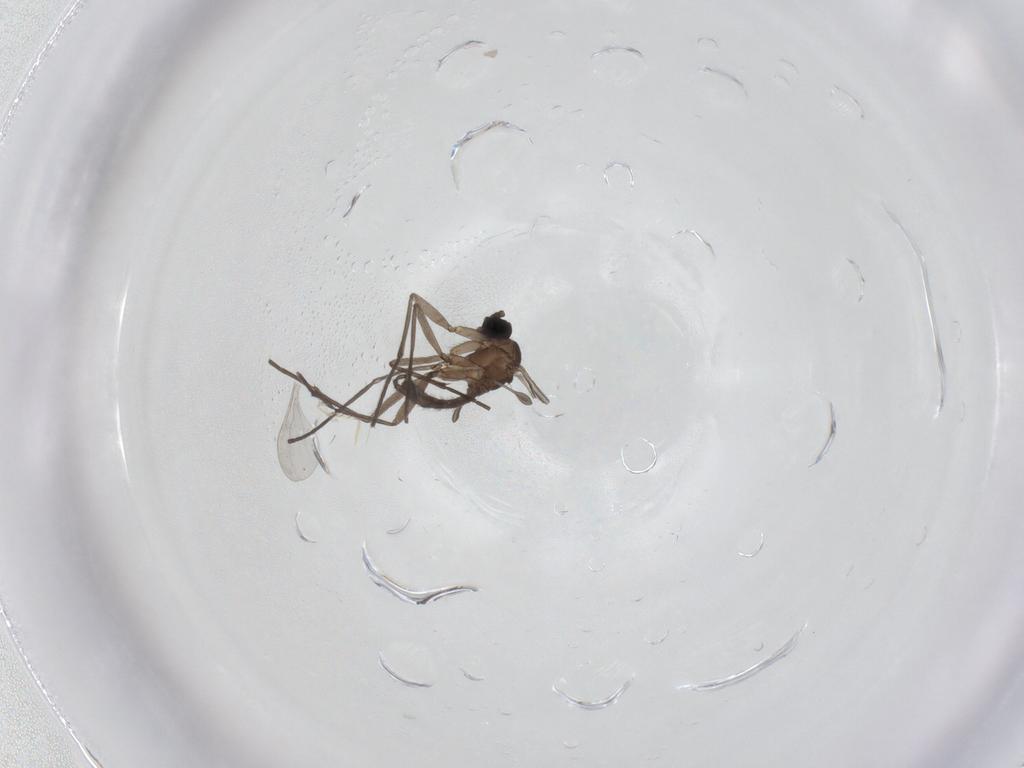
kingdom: Animalia
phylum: Arthropoda
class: Insecta
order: Diptera
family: Sciaridae
